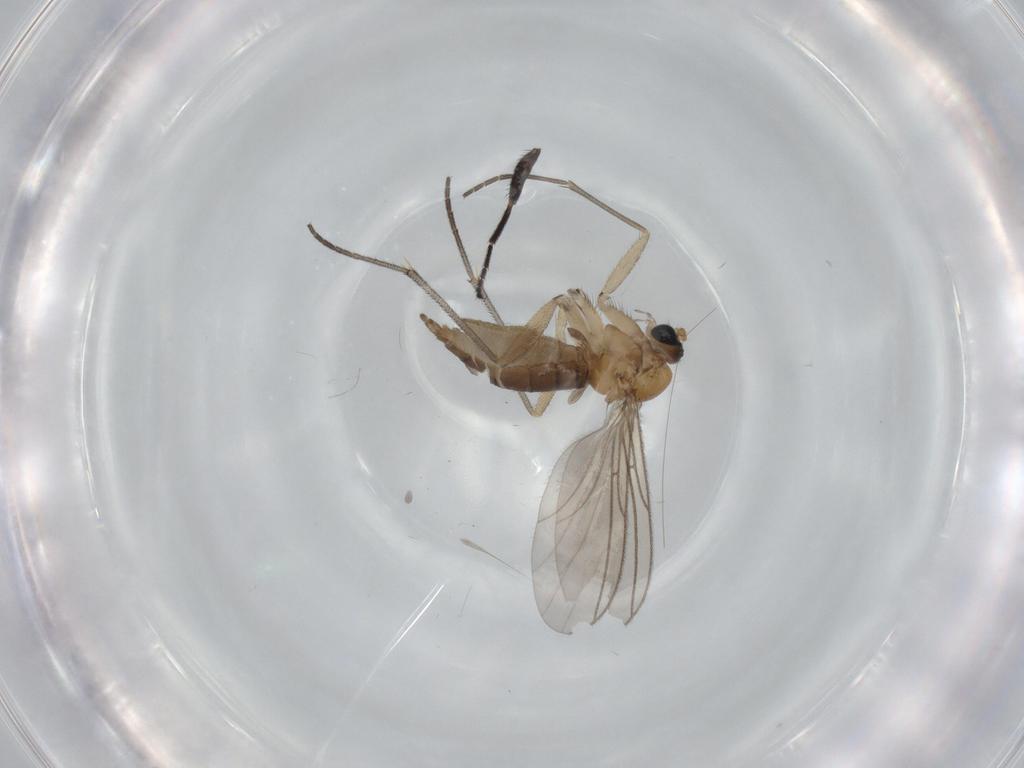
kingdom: Animalia
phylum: Arthropoda
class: Insecta
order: Diptera
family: Sciaridae
